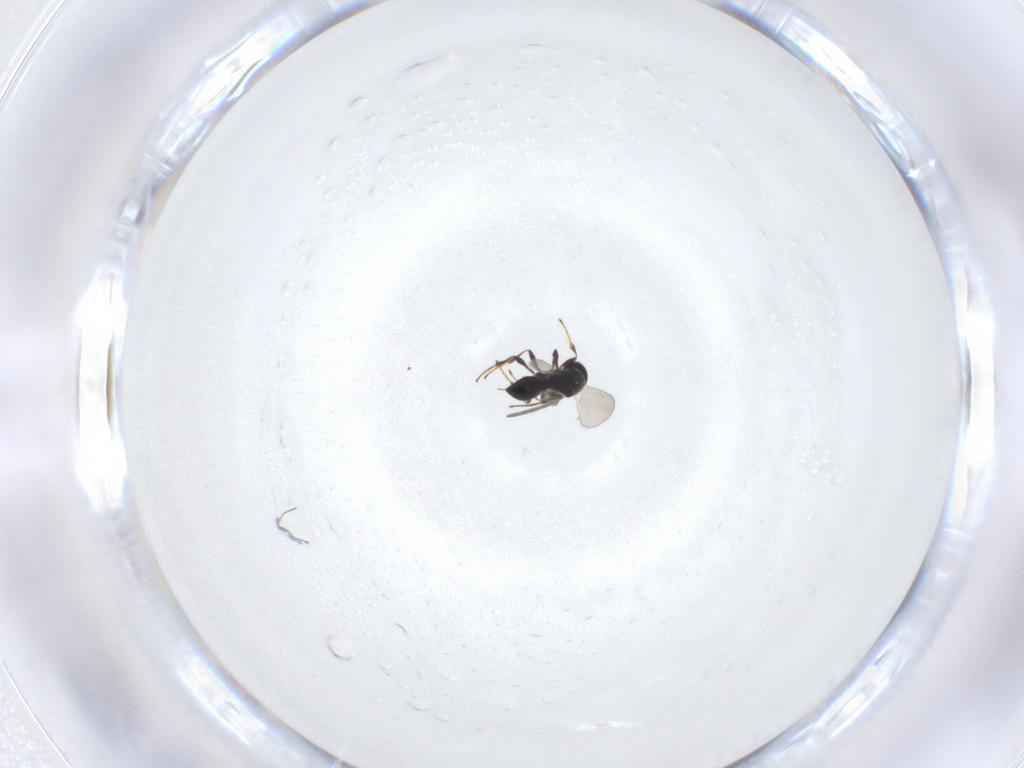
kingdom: Animalia
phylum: Arthropoda
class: Insecta
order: Hymenoptera
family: Platygastridae
